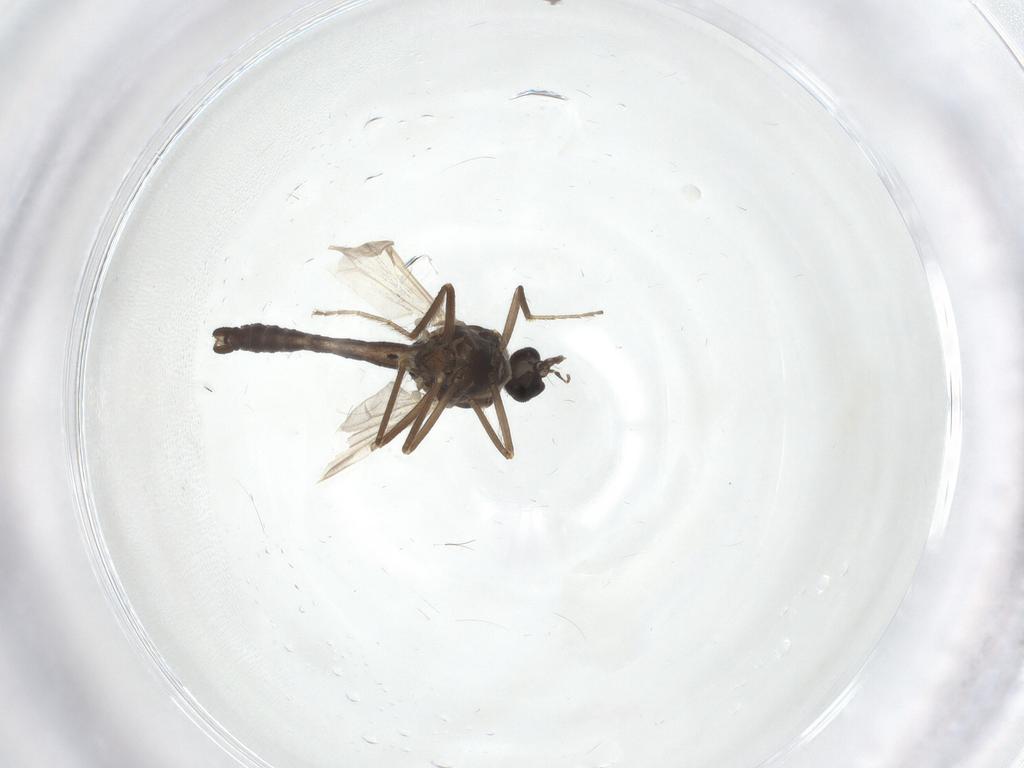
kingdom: Animalia
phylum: Arthropoda
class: Insecta
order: Diptera
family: Ceratopogonidae
